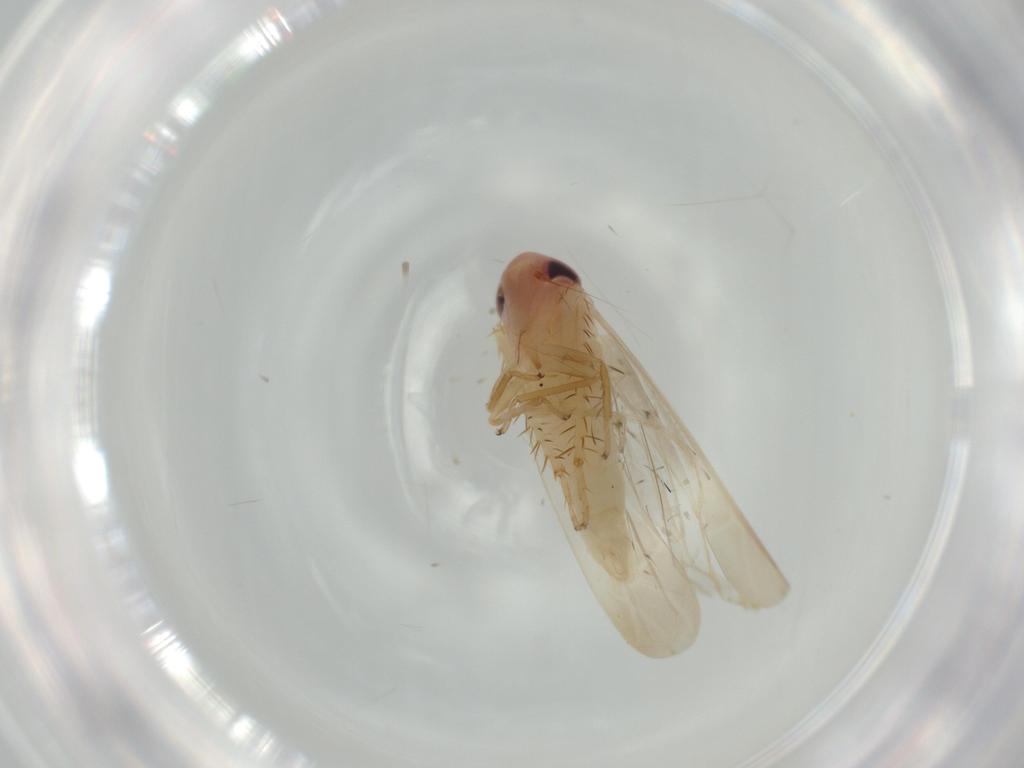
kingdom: Animalia
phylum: Arthropoda
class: Insecta
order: Hemiptera
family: Cicadellidae
